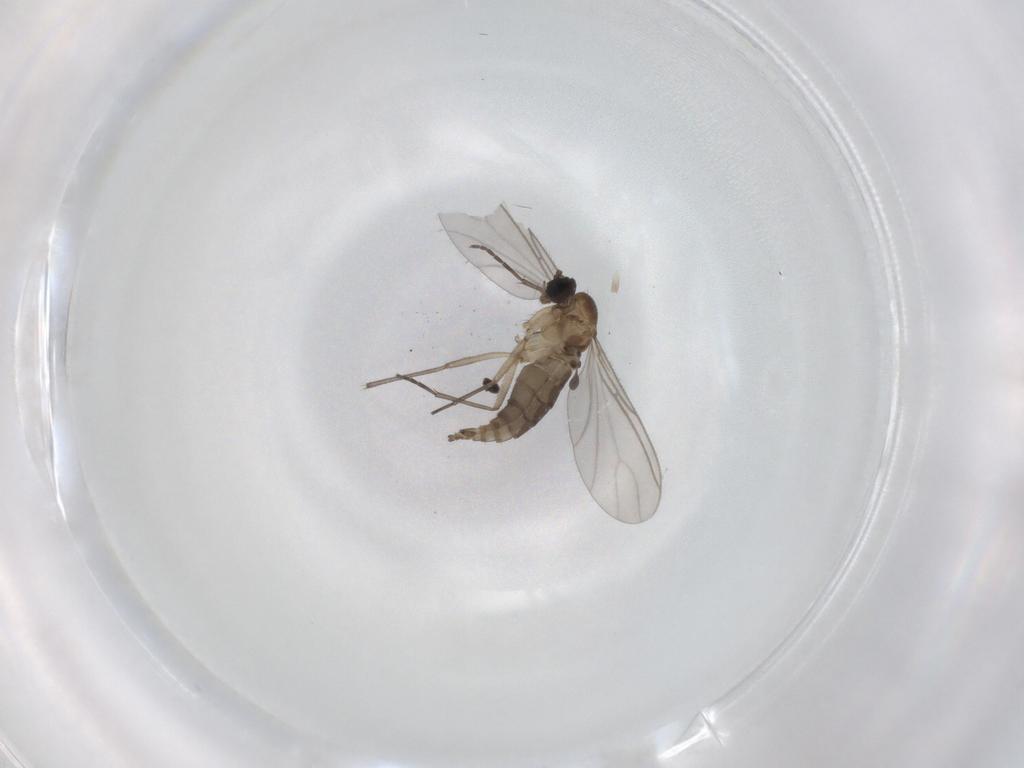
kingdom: Animalia
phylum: Arthropoda
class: Insecta
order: Diptera
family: Sciaridae
